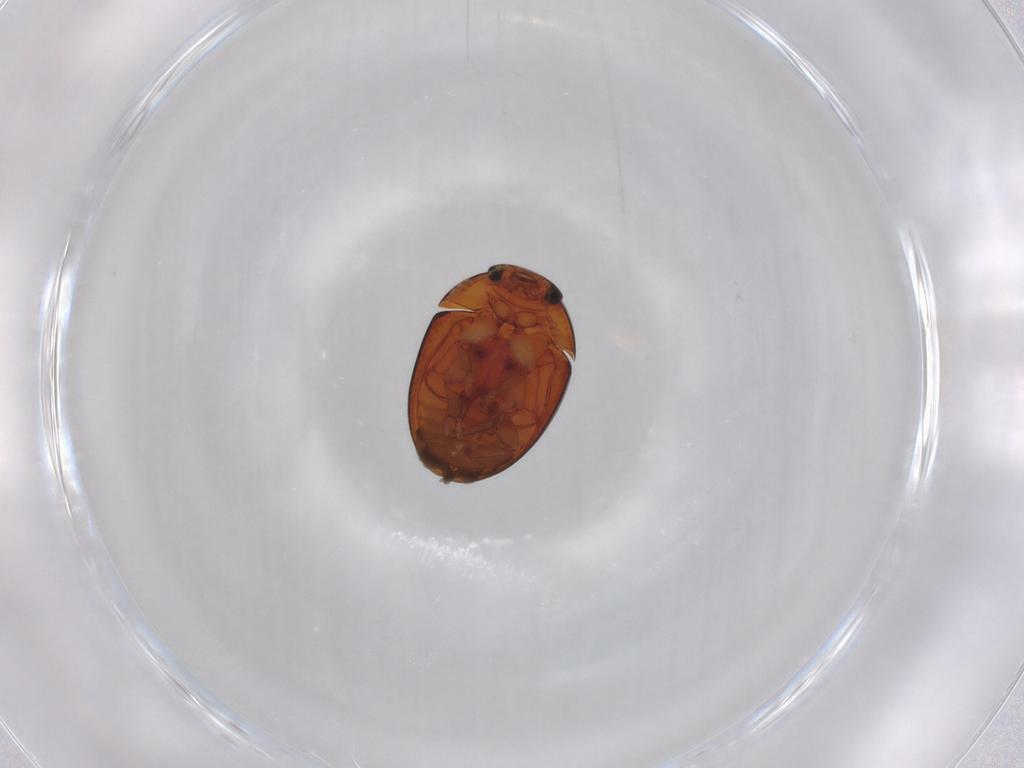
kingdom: Animalia
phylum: Arthropoda
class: Insecta
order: Coleoptera
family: Phalacridae
